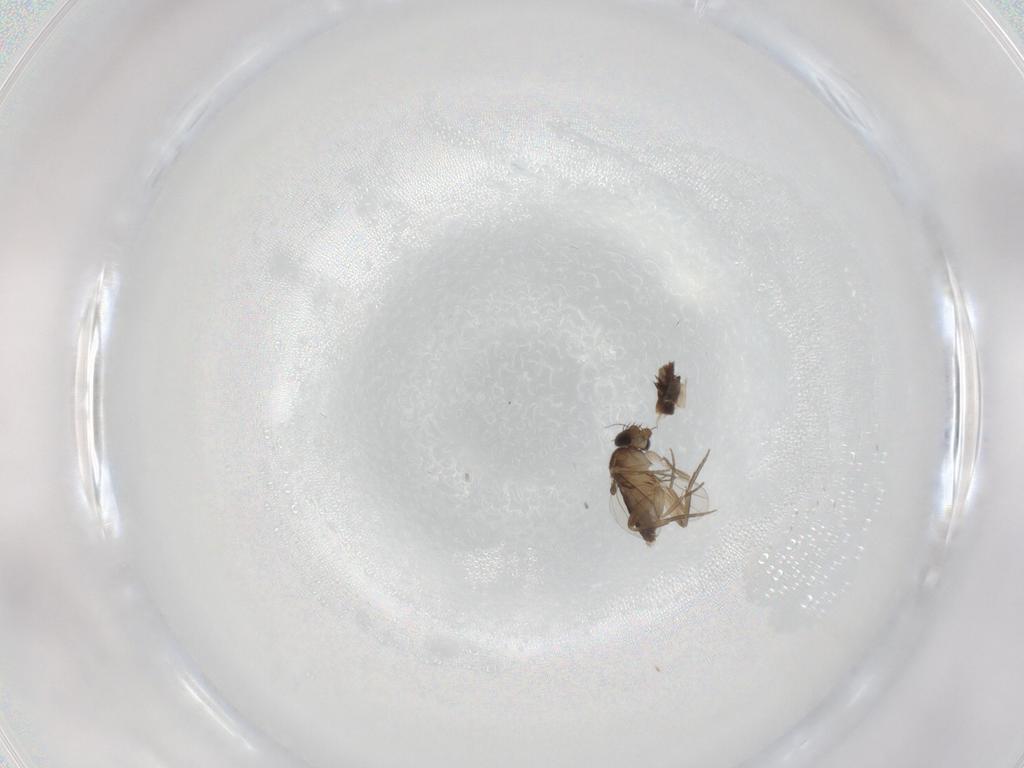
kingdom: Animalia
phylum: Arthropoda
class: Insecta
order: Diptera
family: Dolichopodidae
